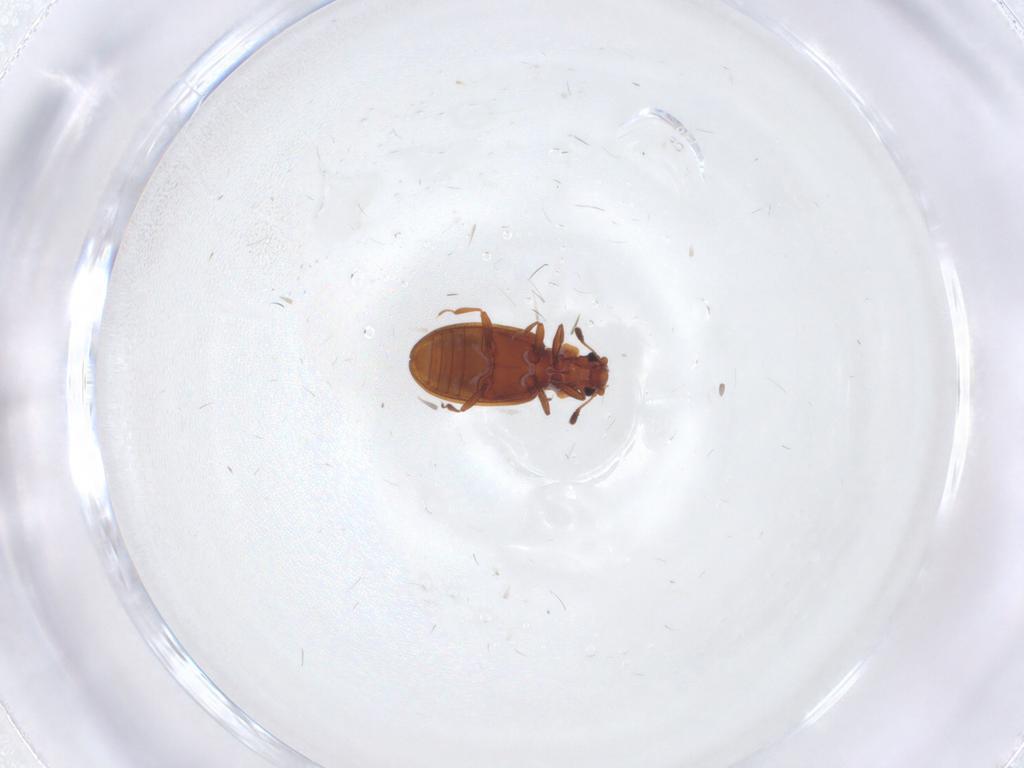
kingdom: Animalia
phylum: Arthropoda
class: Insecta
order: Coleoptera
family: Latridiidae
